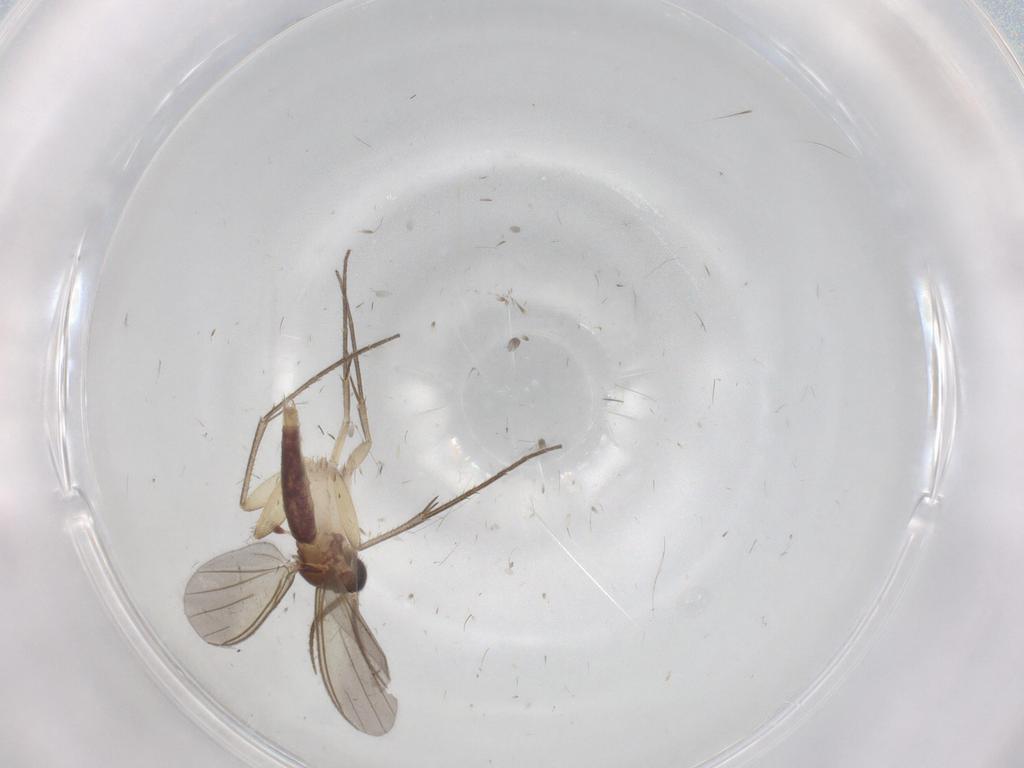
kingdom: Animalia
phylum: Arthropoda
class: Insecta
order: Diptera
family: Mycetophilidae
